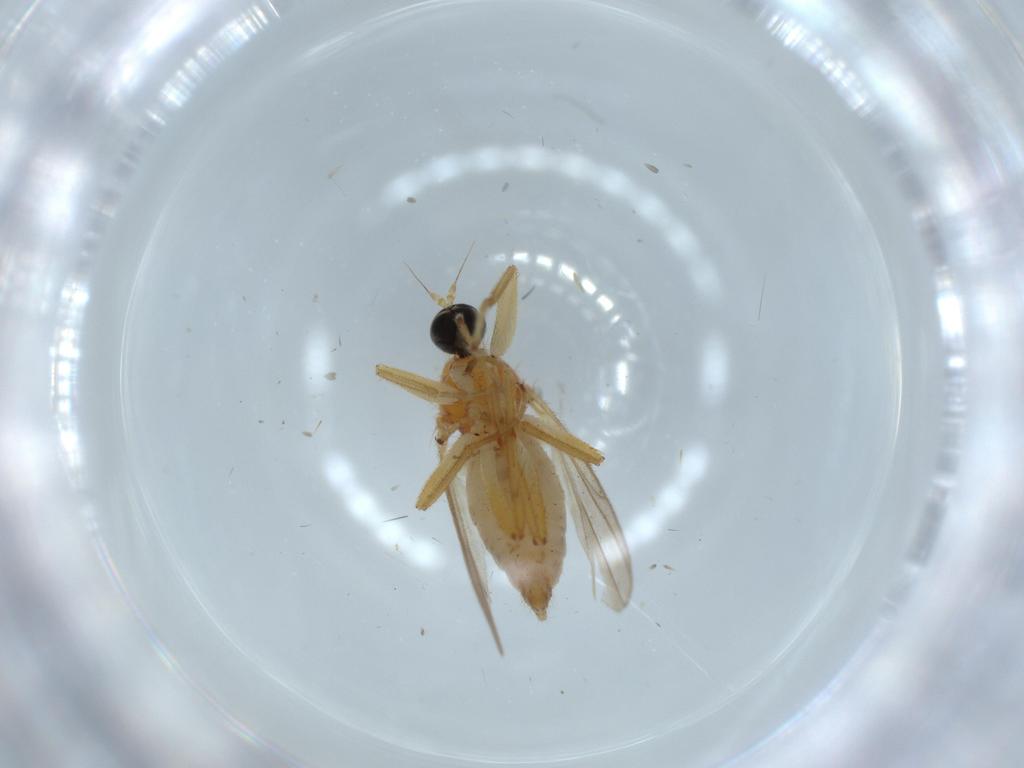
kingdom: Animalia
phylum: Arthropoda
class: Insecta
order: Diptera
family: Hybotidae
